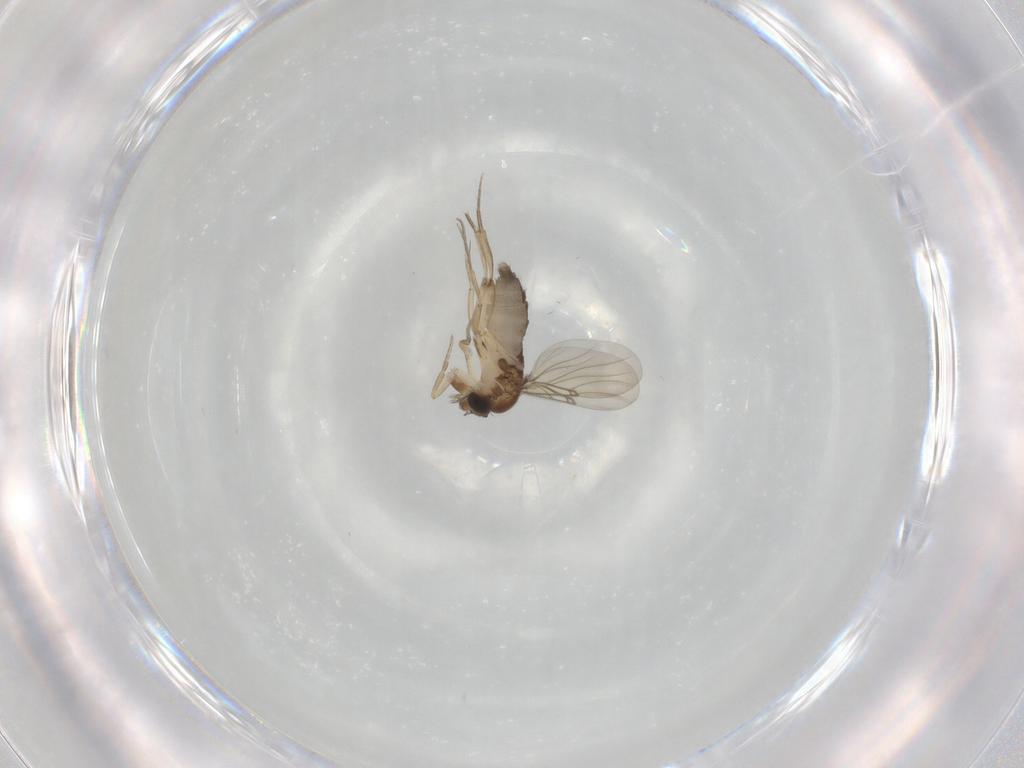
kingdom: Animalia
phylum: Arthropoda
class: Insecta
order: Diptera
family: Phoridae
